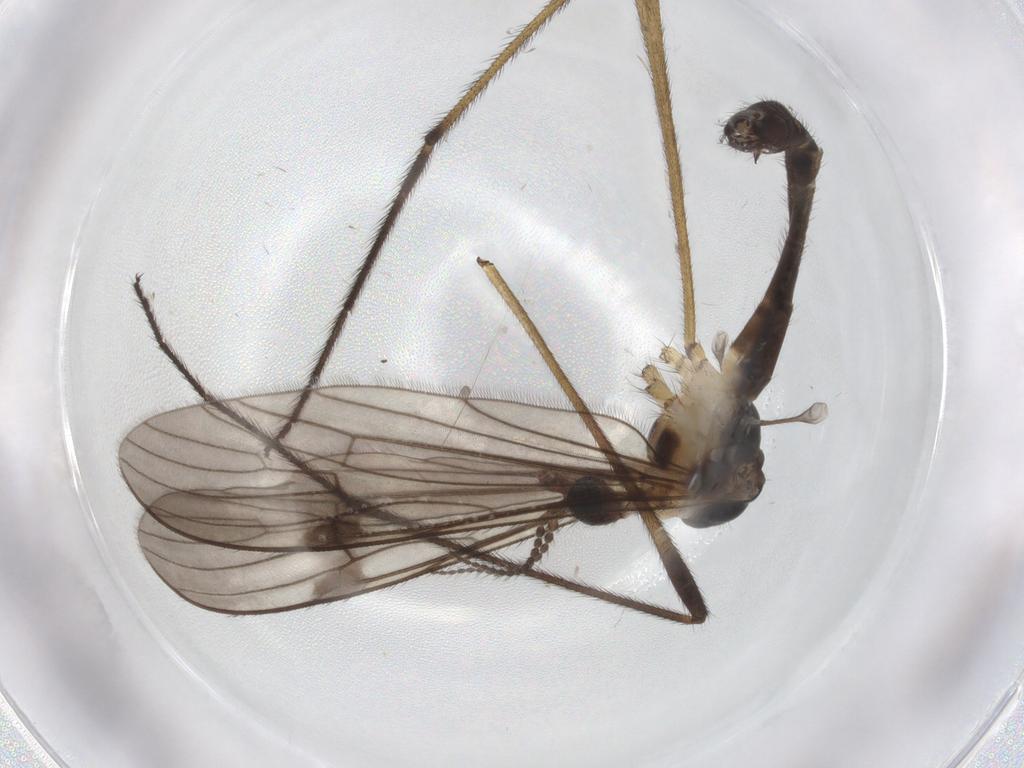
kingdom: Animalia
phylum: Arthropoda
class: Insecta
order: Diptera
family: Limoniidae
